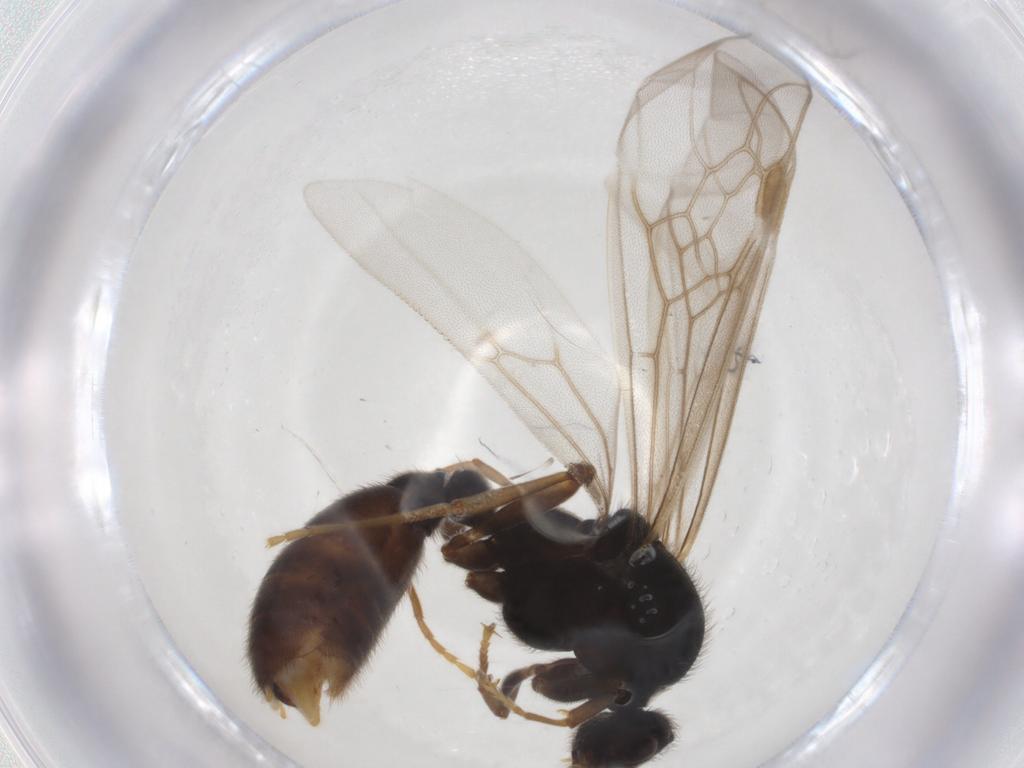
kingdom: Animalia
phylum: Arthropoda
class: Insecta
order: Hymenoptera
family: Formicidae
